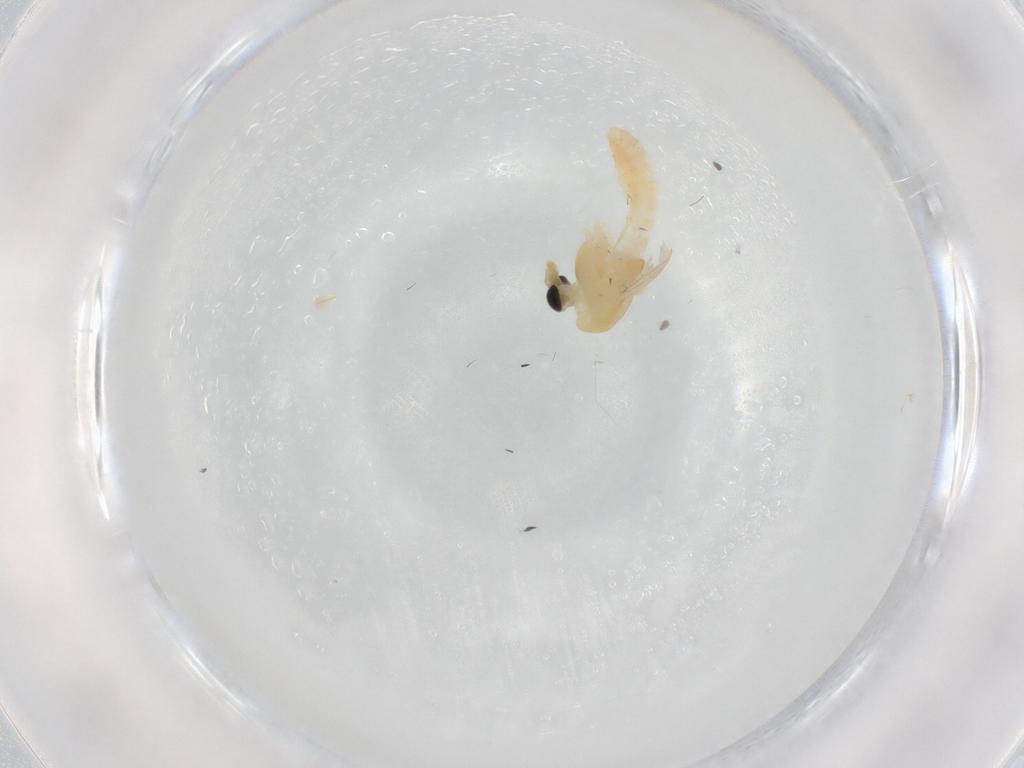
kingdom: Animalia
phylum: Arthropoda
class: Insecta
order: Diptera
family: Chironomidae
